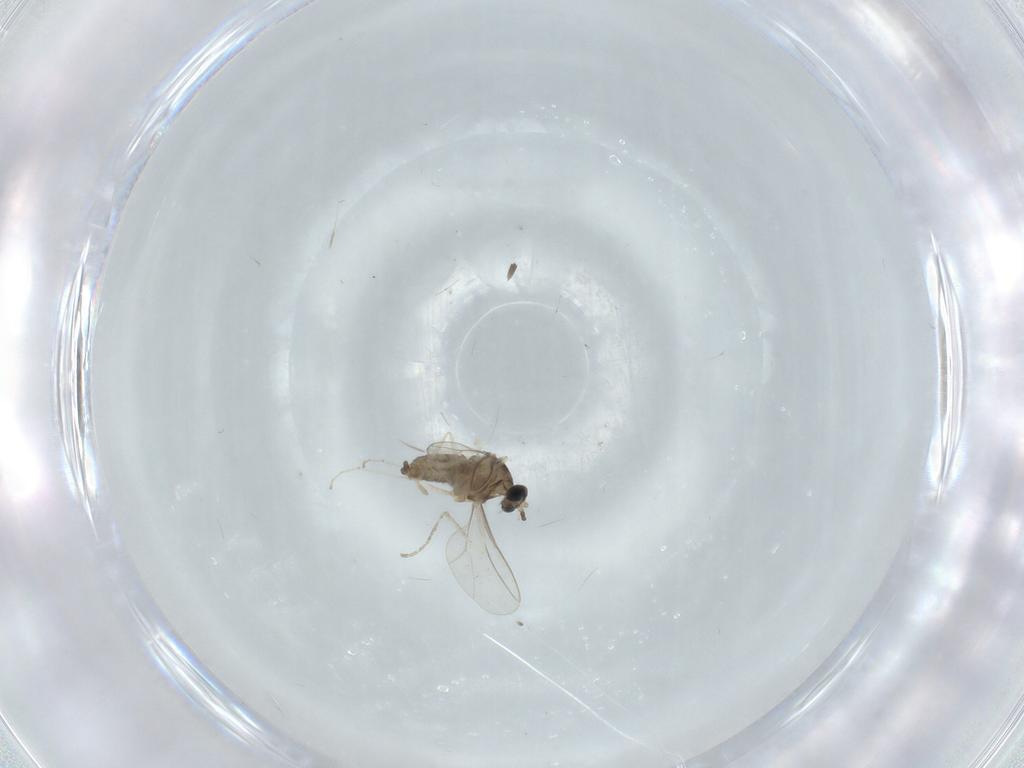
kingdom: Animalia
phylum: Arthropoda
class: Insecta
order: Diptera
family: Cecidomyiidae
